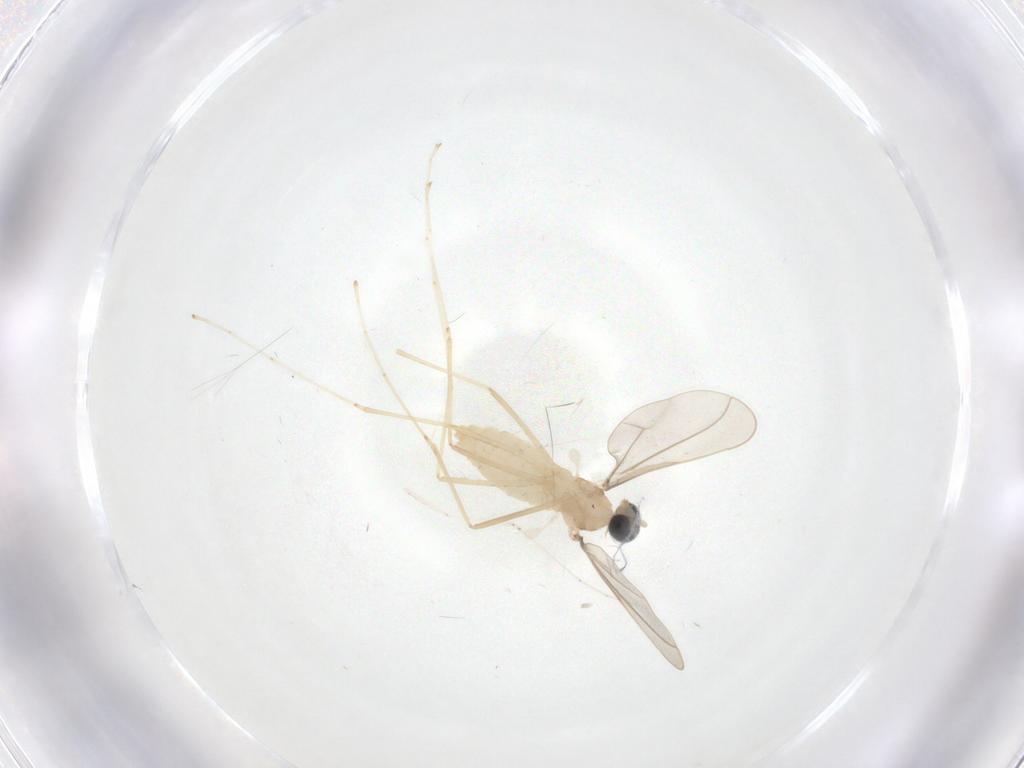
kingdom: Animalia
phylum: Arthropoda
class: Insecta
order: Diptera
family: Cecidomyiidae
